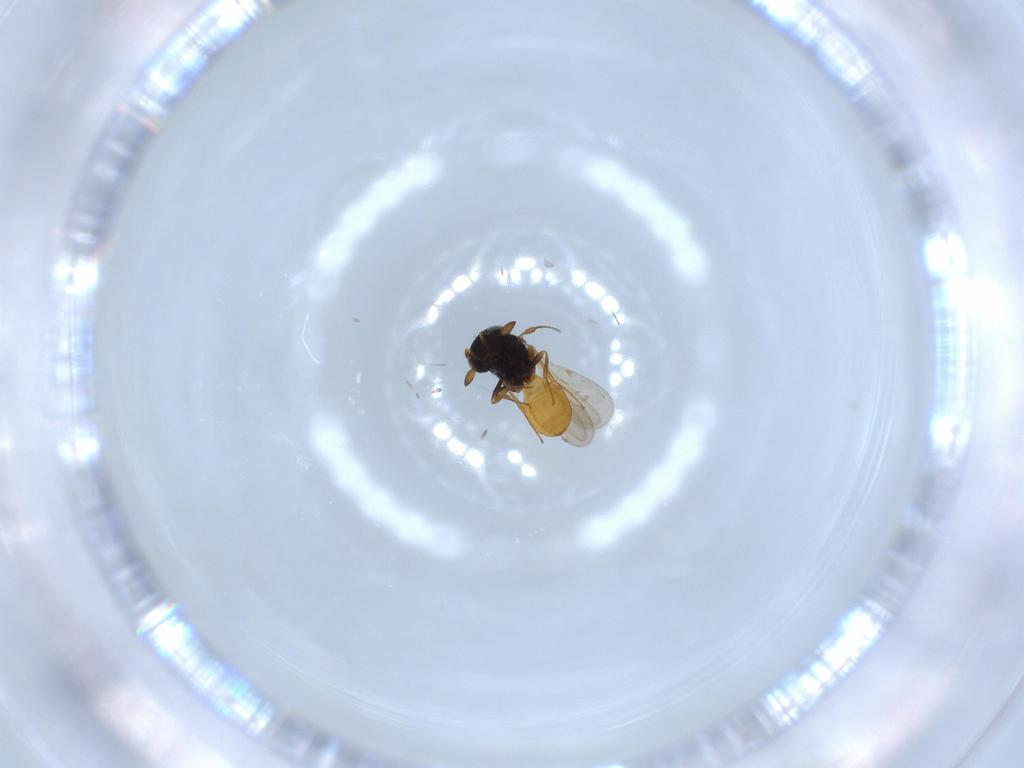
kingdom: Animalia
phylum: Arthropoda
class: Insecta
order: Hymenoptera
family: Scelionidae
